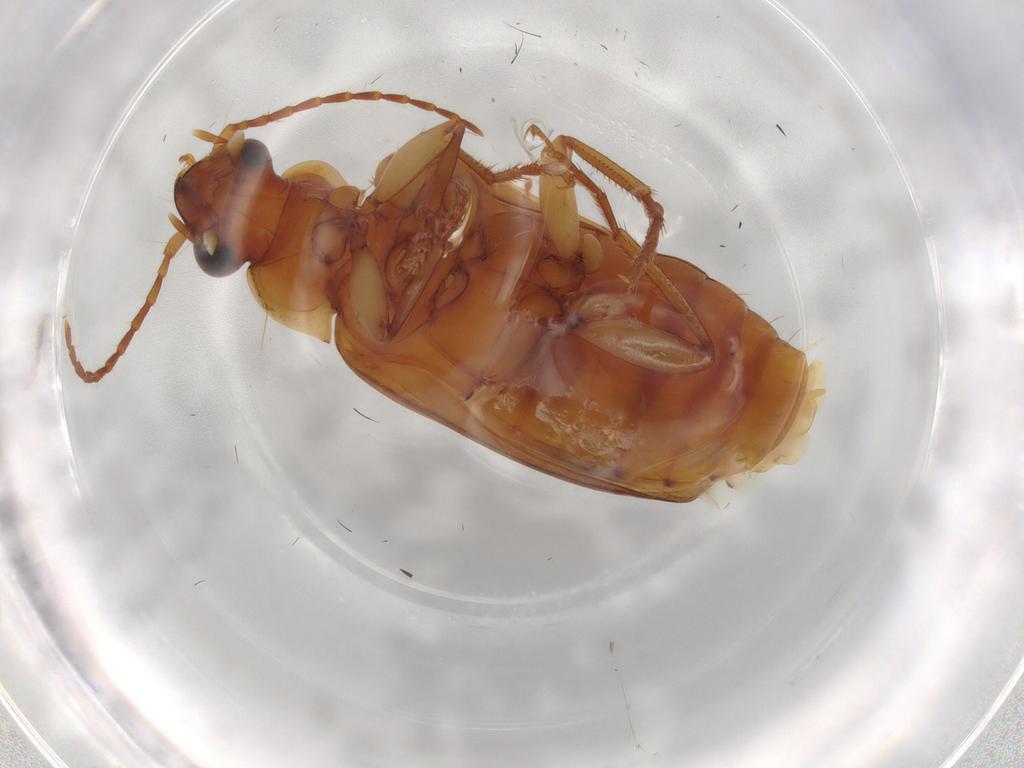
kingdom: Animalia
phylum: Arthropoda
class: Insecta
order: Coleoptera
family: Carabidae
